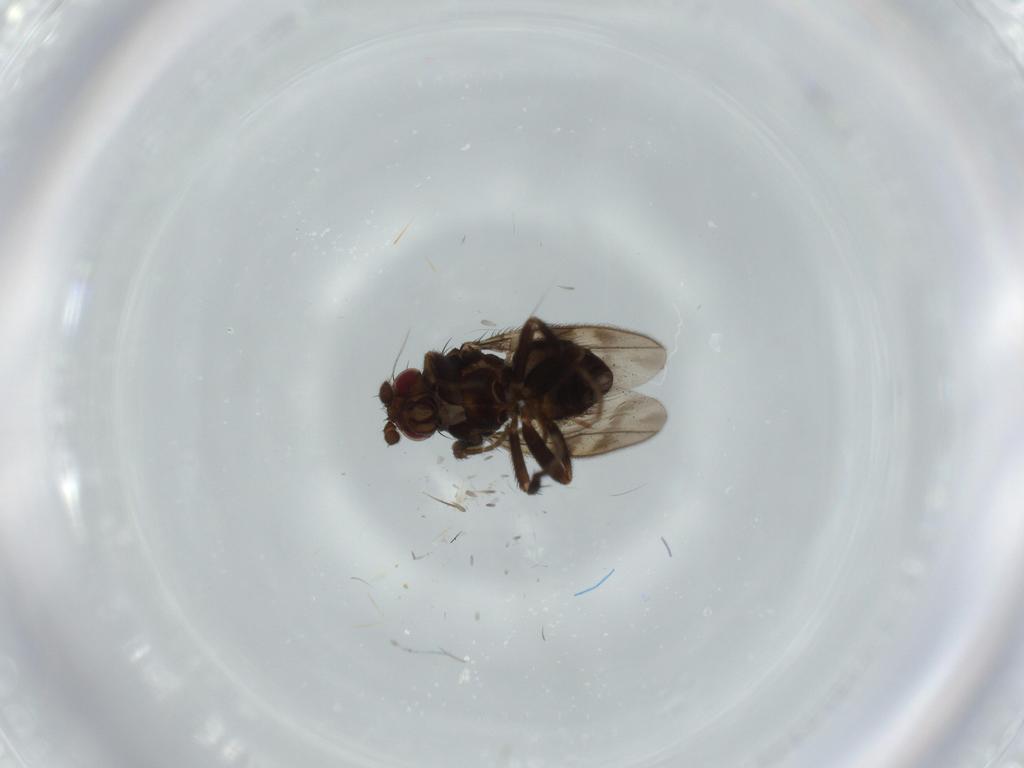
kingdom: Animalia
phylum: Arthropoda
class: Insecta
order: Diptera
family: Sphaeroceridae
